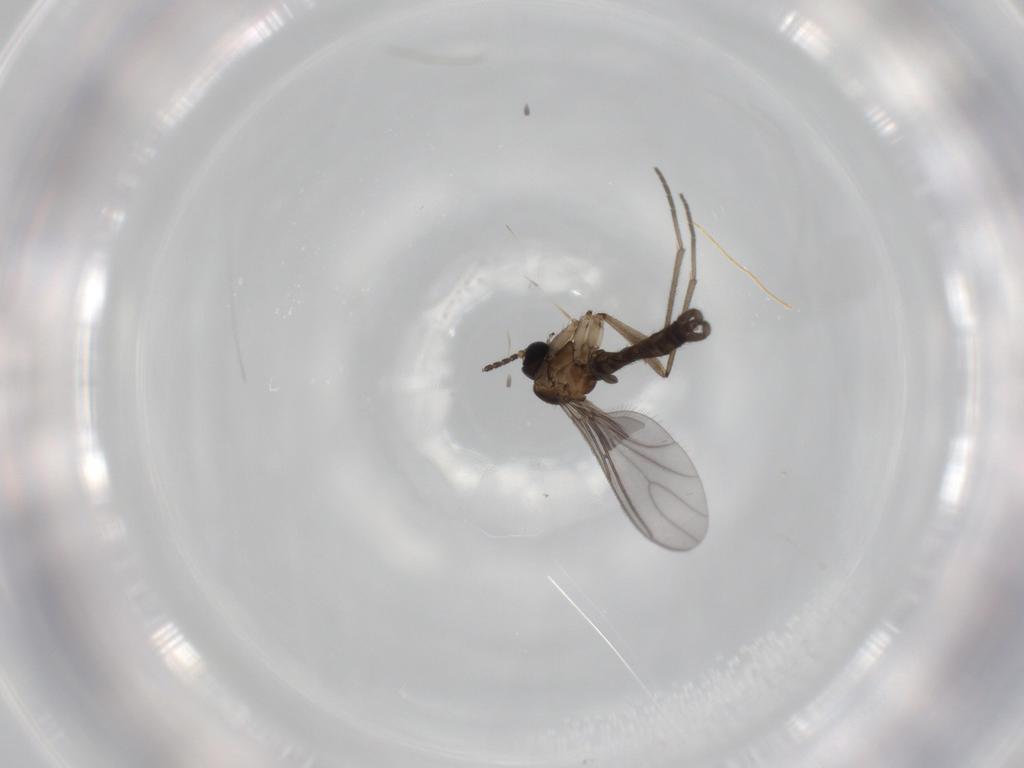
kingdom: Animalia
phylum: Arthropoda
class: Insecta
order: Diptera
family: Sciaridae
